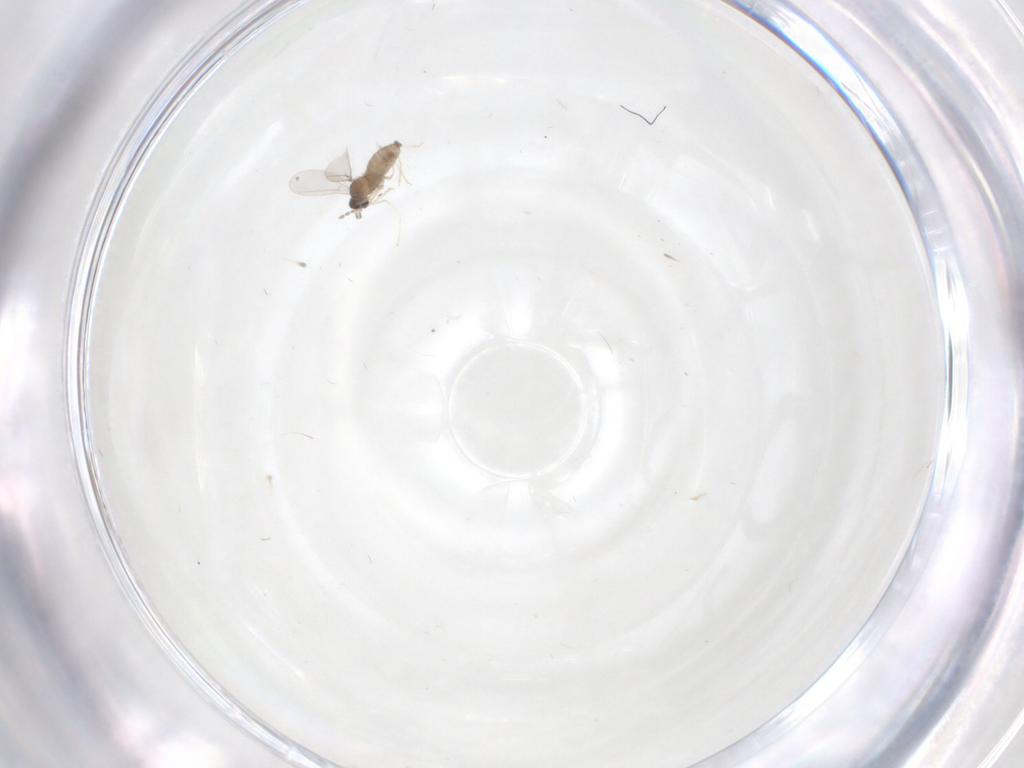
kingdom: Animalia
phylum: Arthropoda
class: Insecta
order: Diptera
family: Cecidomyiidae
